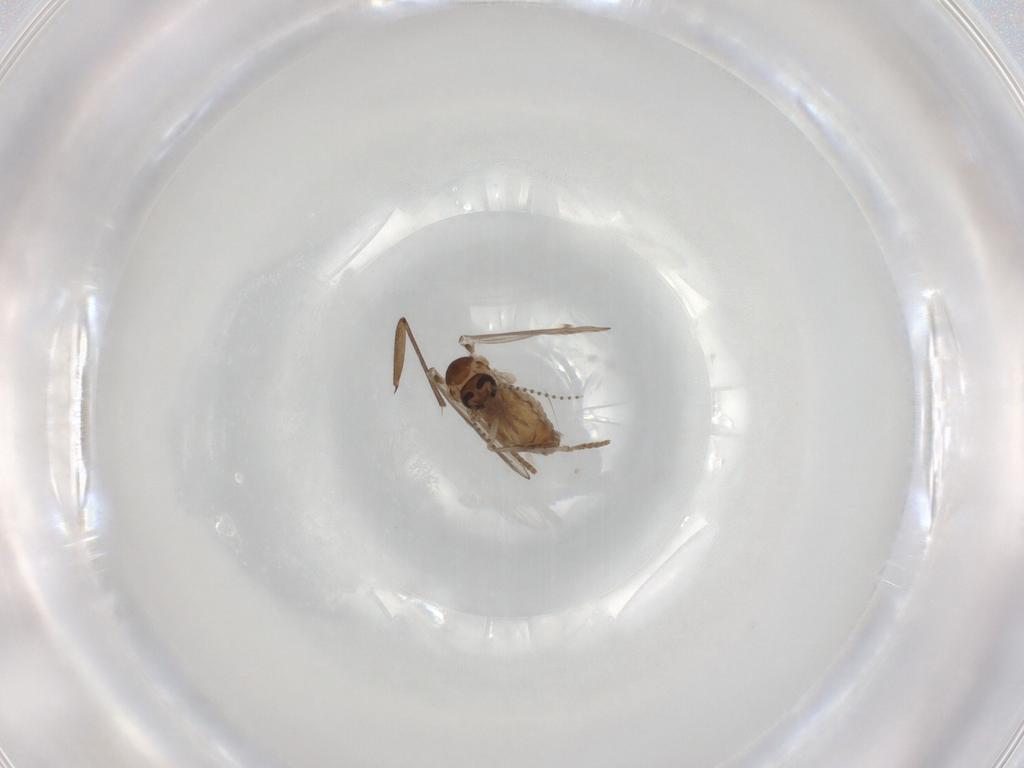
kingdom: Animalia
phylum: Arthropoda
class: Insecta
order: Diptera
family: Psychodidae
